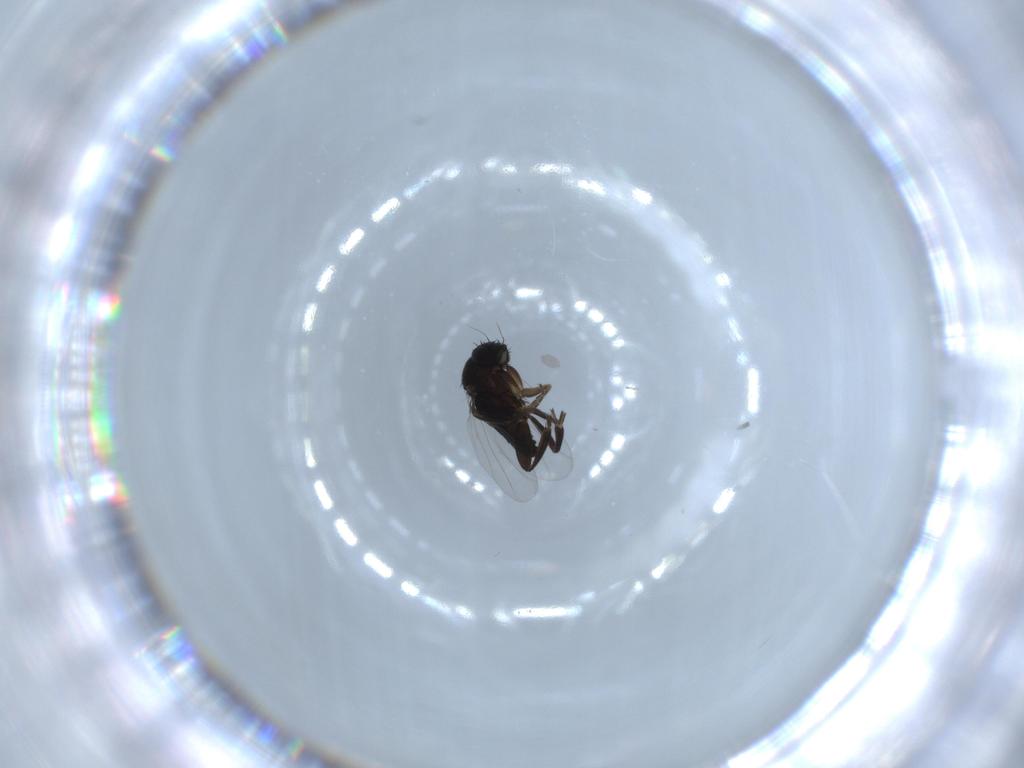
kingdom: Animalia
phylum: Arthropoda
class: Insecta
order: Diptera
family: Phoridae
